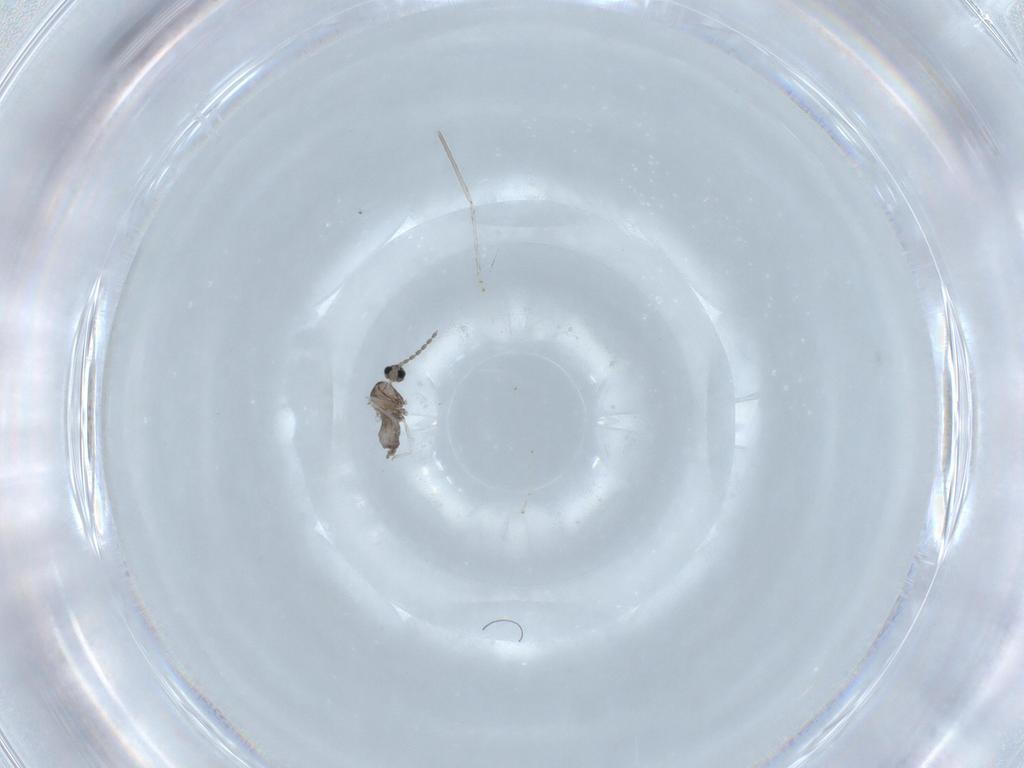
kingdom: Animalia
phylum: Arthropoda
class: Insecta
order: Diptera
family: Cecidomyiidae
